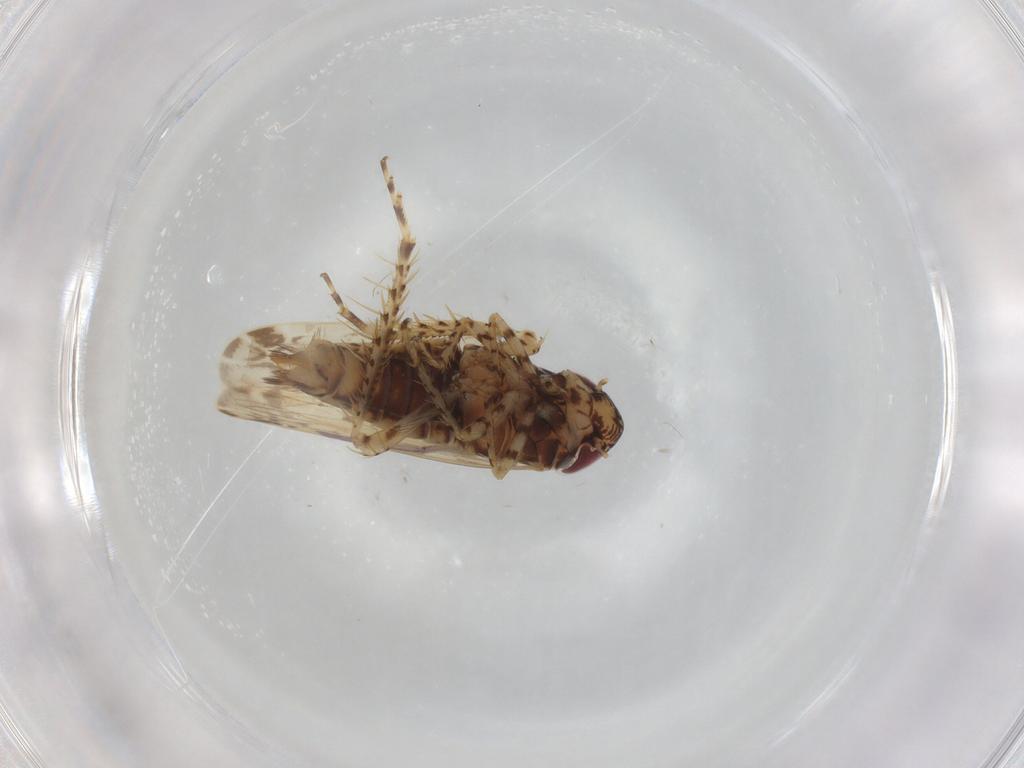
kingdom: Animalia
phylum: Arthropoda
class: Insecta
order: Hemiptera
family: Cicadellidae
